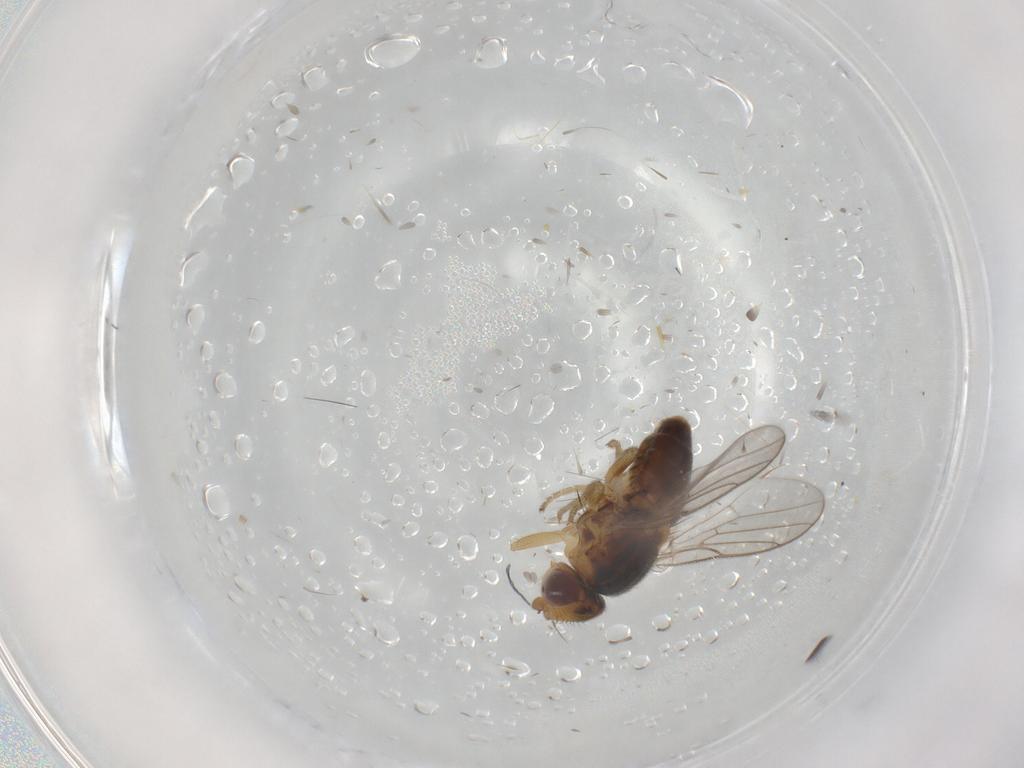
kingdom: Animalia
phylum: Arthropoda
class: Insecta
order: Diptera
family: Chloropidae
